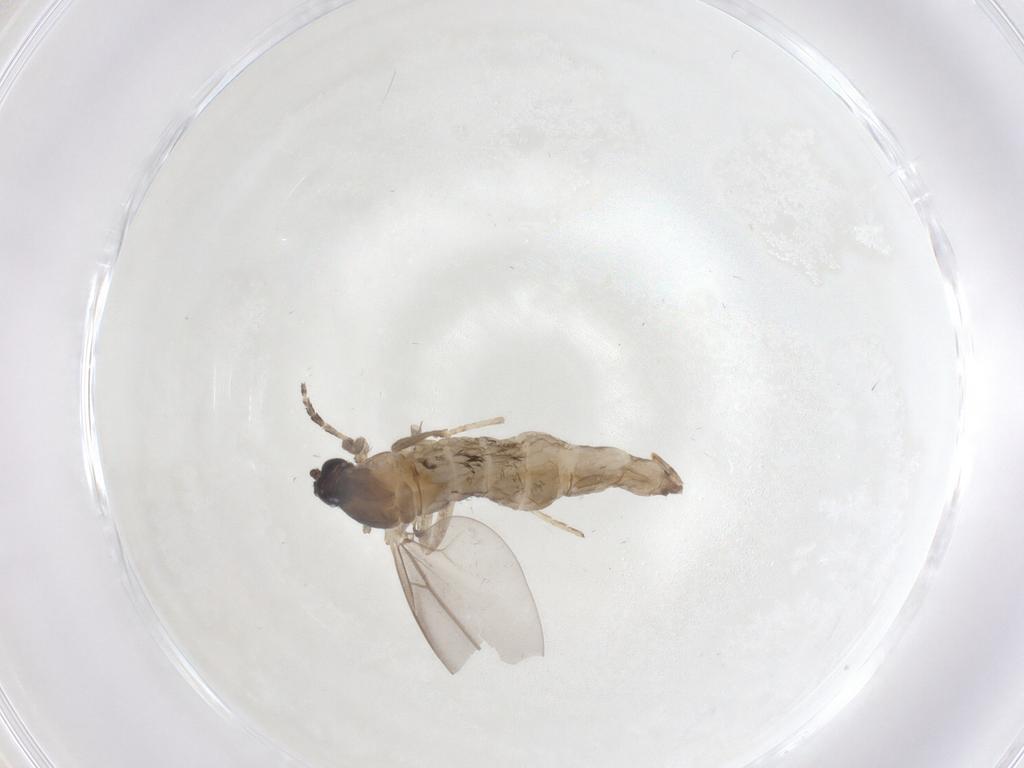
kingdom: Animalia
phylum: Arthropoda
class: Insecta
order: Diptera
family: Cecidomyiidae
